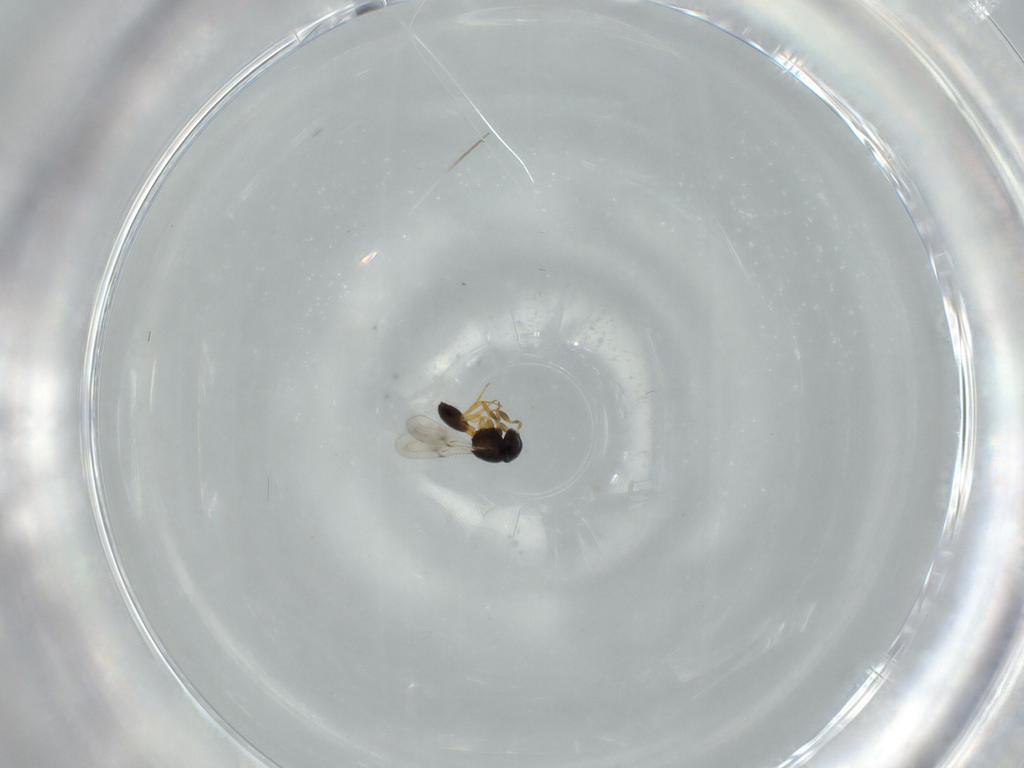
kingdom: Animalia
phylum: Arthropoda
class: Insecta
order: Hymenoptera
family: Scelionidae
